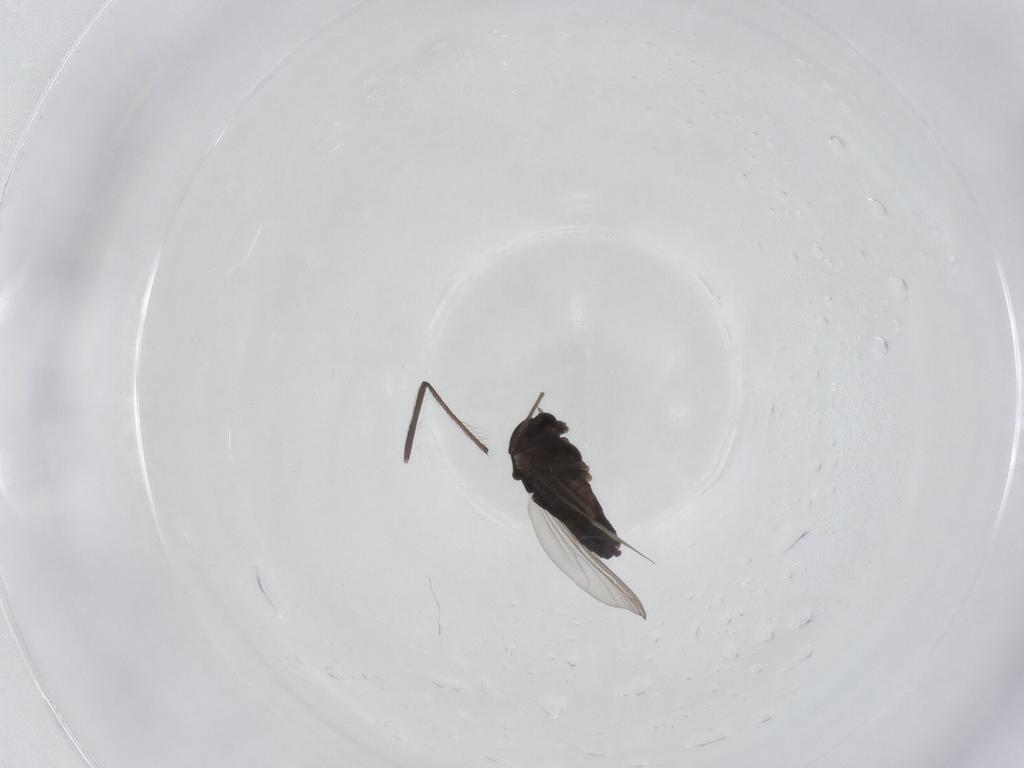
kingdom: Animalia
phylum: Arthropoda
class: Insecta
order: Diptera
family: Chironomidae
